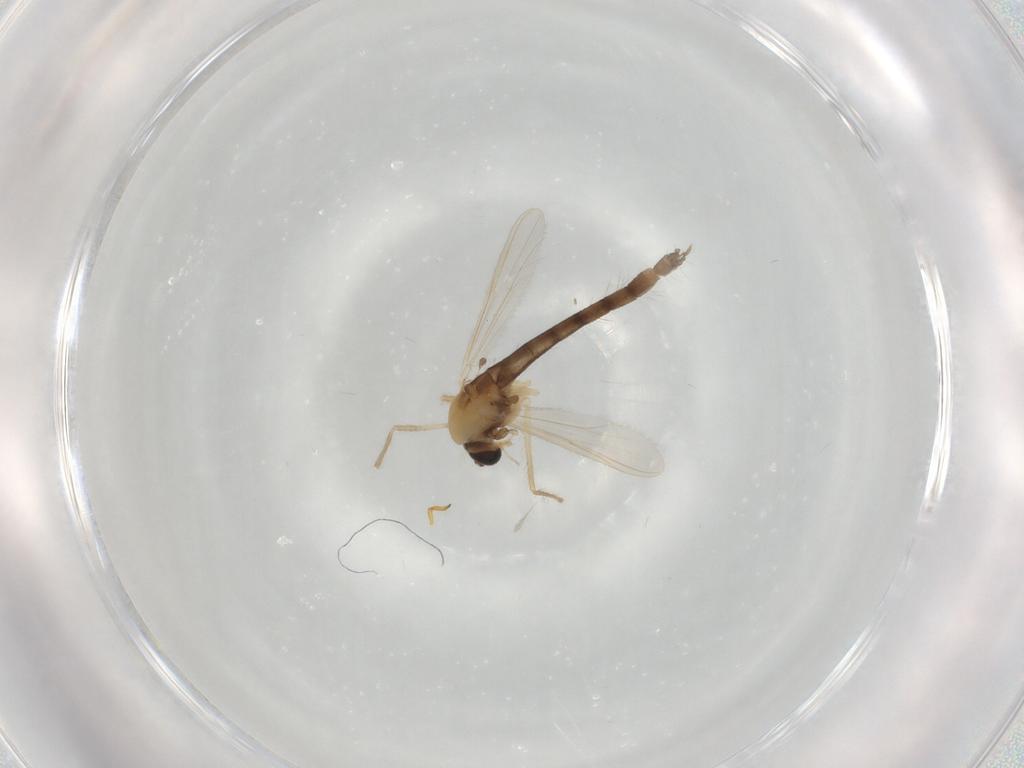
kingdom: Animalia
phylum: Arthropoda
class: Insecta
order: Diptera
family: Chironomidae
